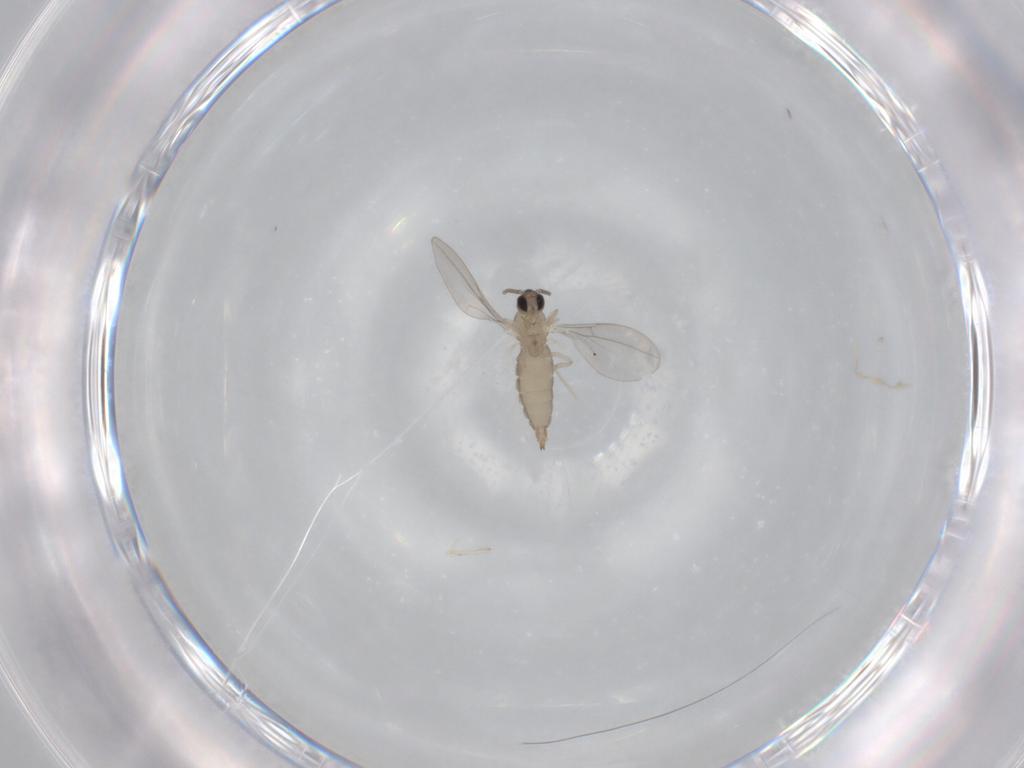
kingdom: Animalia
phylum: Arthropoda
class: Insecta
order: Diptera
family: Cecidomyiidae
